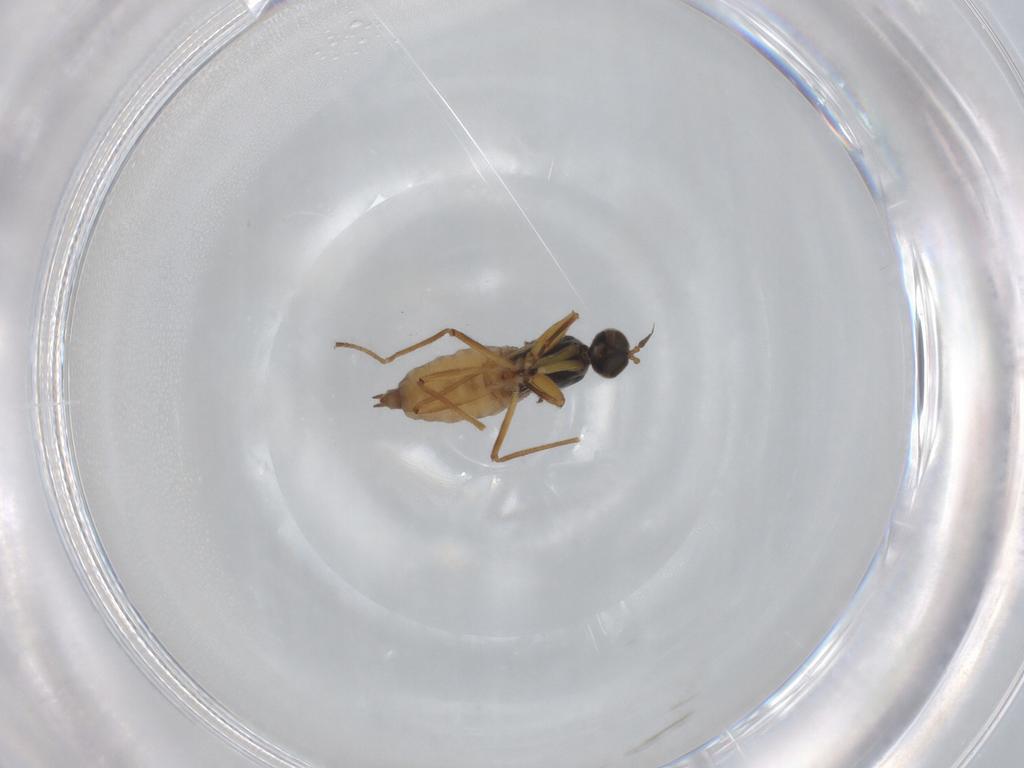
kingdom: Animalia
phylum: Arthropoda
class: Insecta
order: Diptera
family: Empididae
